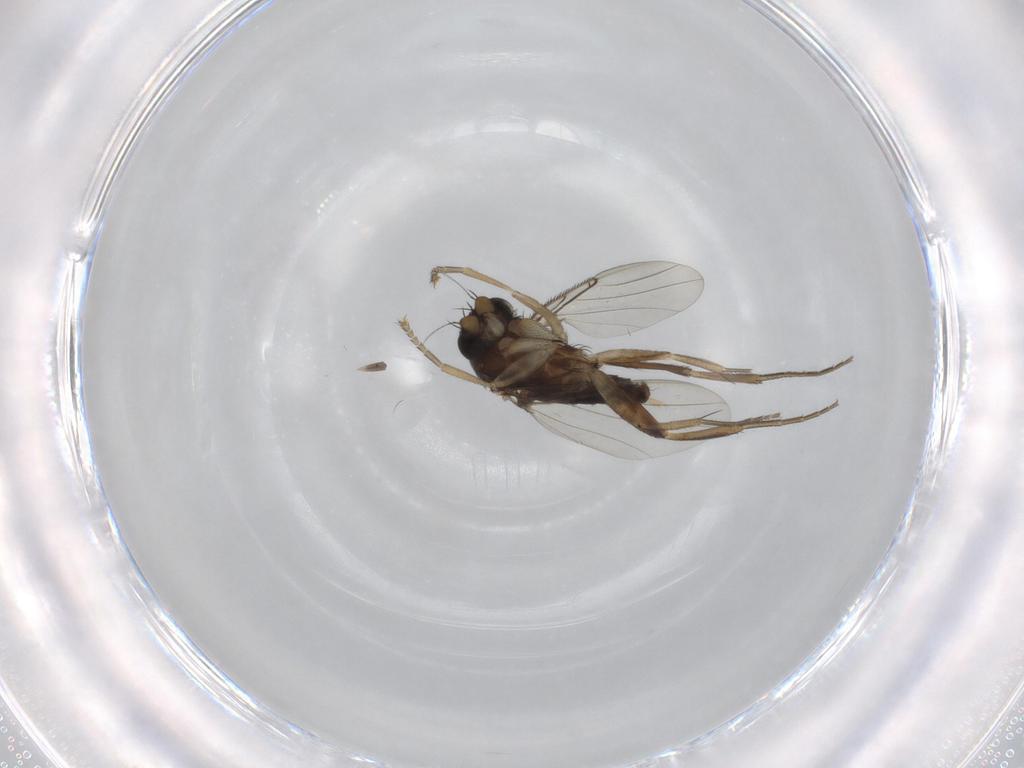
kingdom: Animalia
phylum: Arthropoda
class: Insecta
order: Diptera
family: Phoridae
